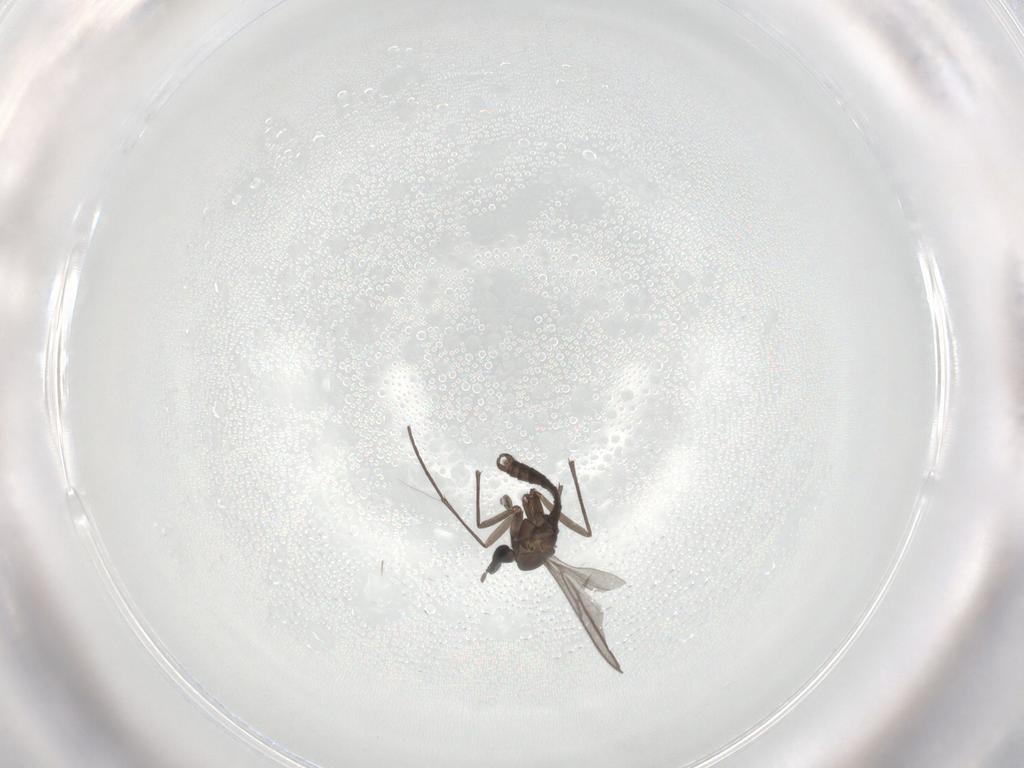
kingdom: Animalia
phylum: Arthropoda
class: Insecta
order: Diptera
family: Sciaridae
